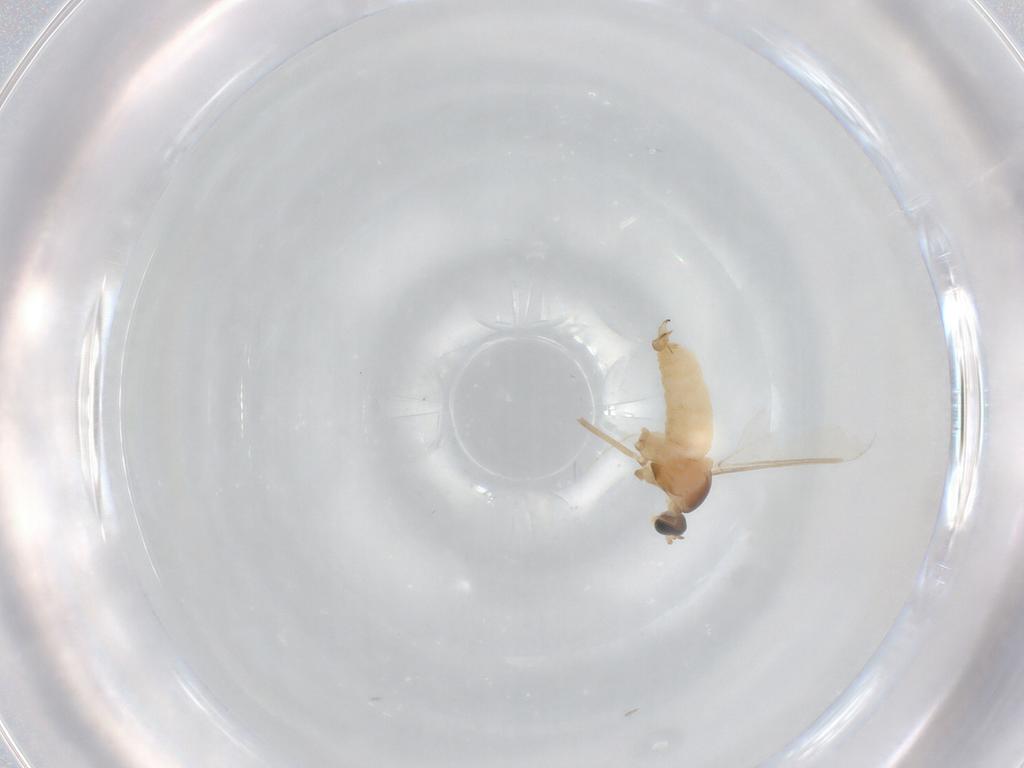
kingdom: Animalia
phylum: Arthropoda
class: Insecta
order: Diptera
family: Cecidomyiidae
